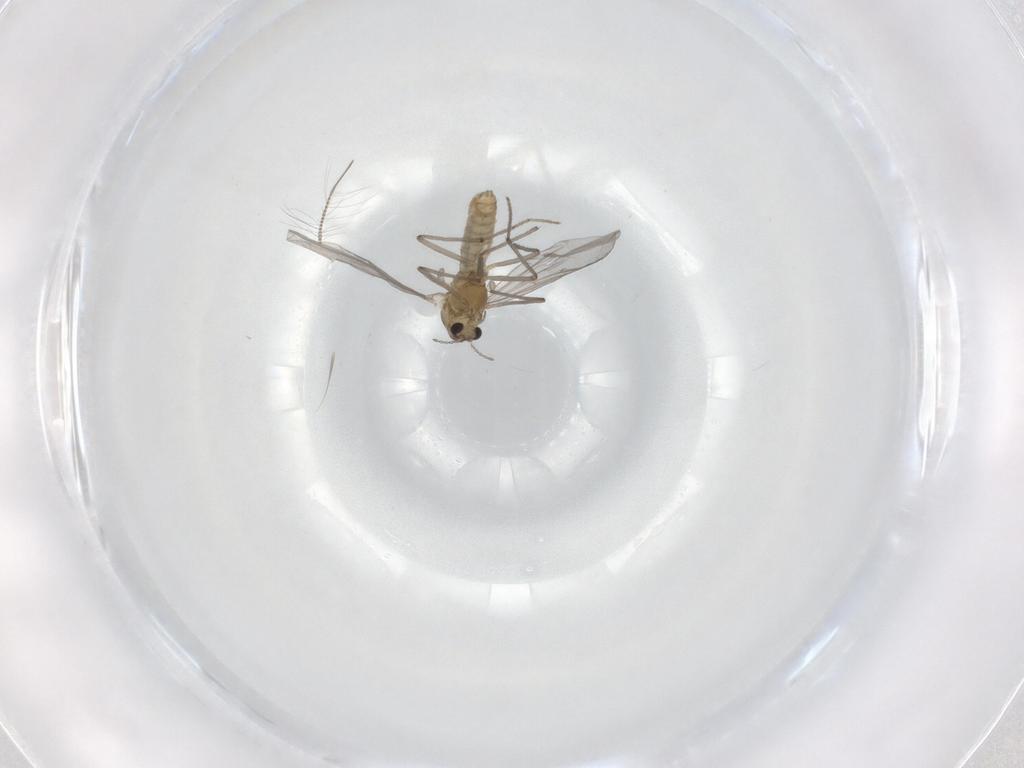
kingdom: Animalia
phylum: Arthropoda
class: Insecta
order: Diptera
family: Chironomidae
